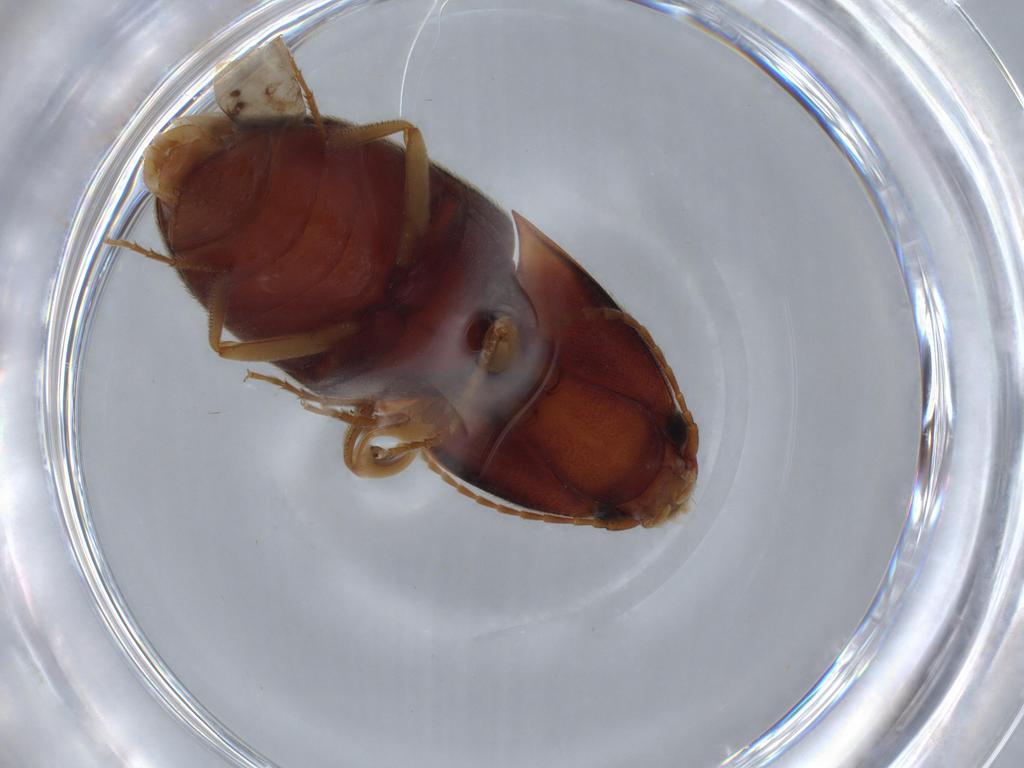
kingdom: Animalia
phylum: Arthropoda
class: Insecta
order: Coleoptera
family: Elateridae
